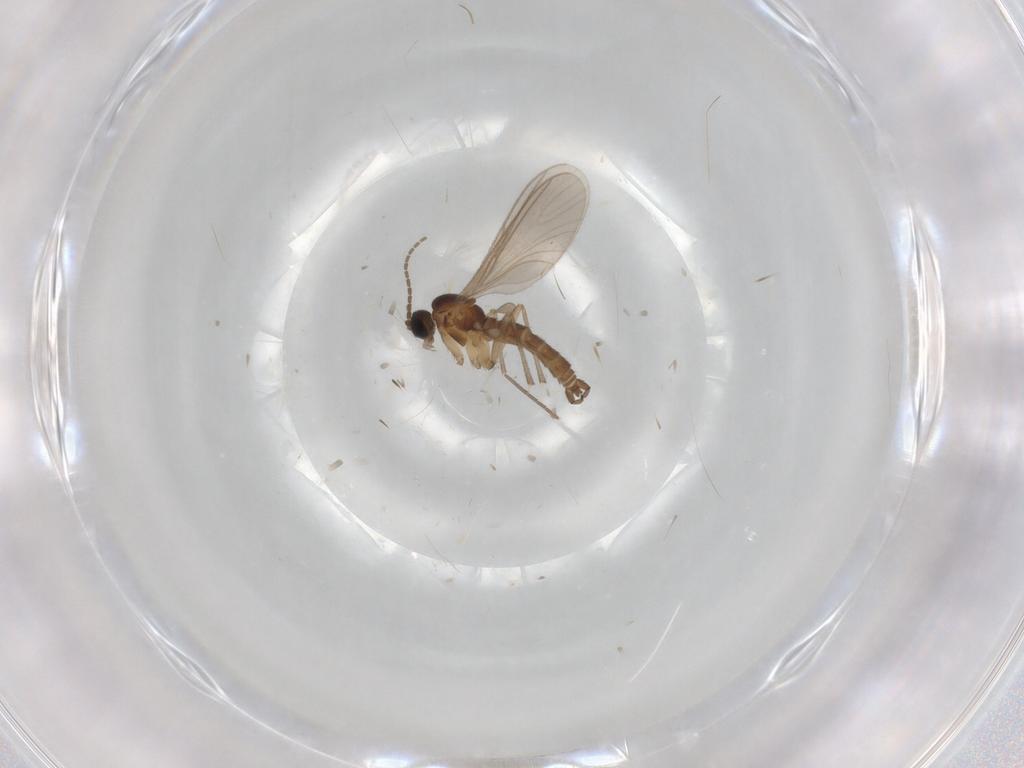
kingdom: Animalia
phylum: Arthropoda
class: Insecta
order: Diptera
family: Sciaridae
